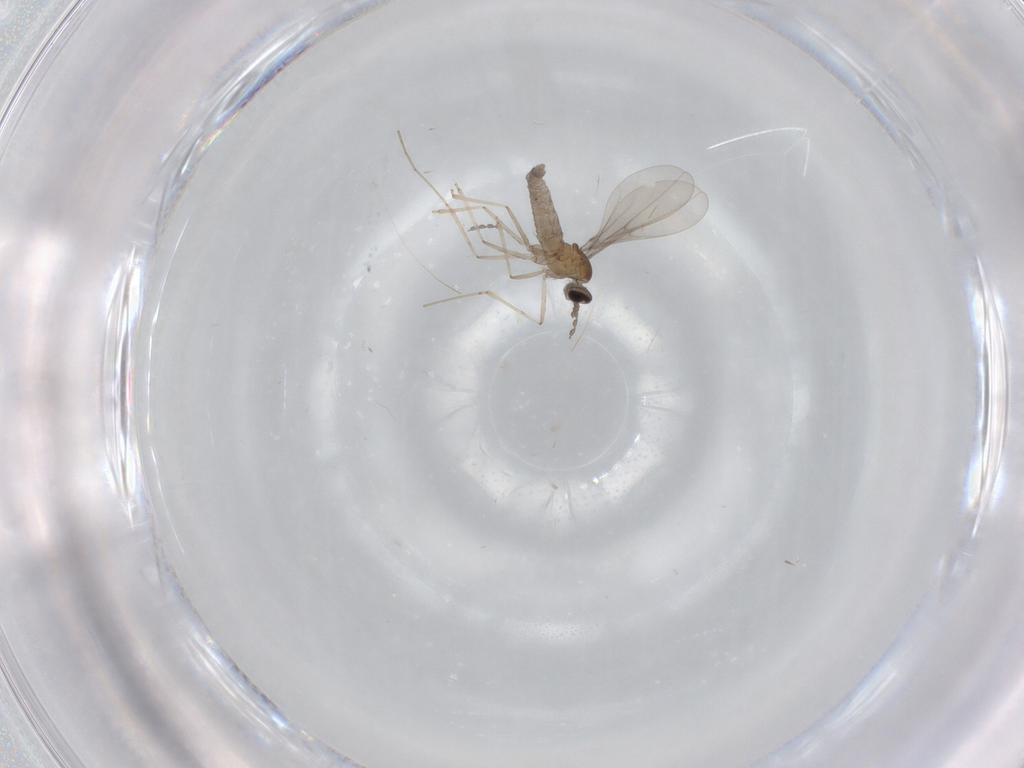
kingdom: Animalia
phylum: Arthropoda
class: Insecta
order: Diptera
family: Cecidomyiidae
